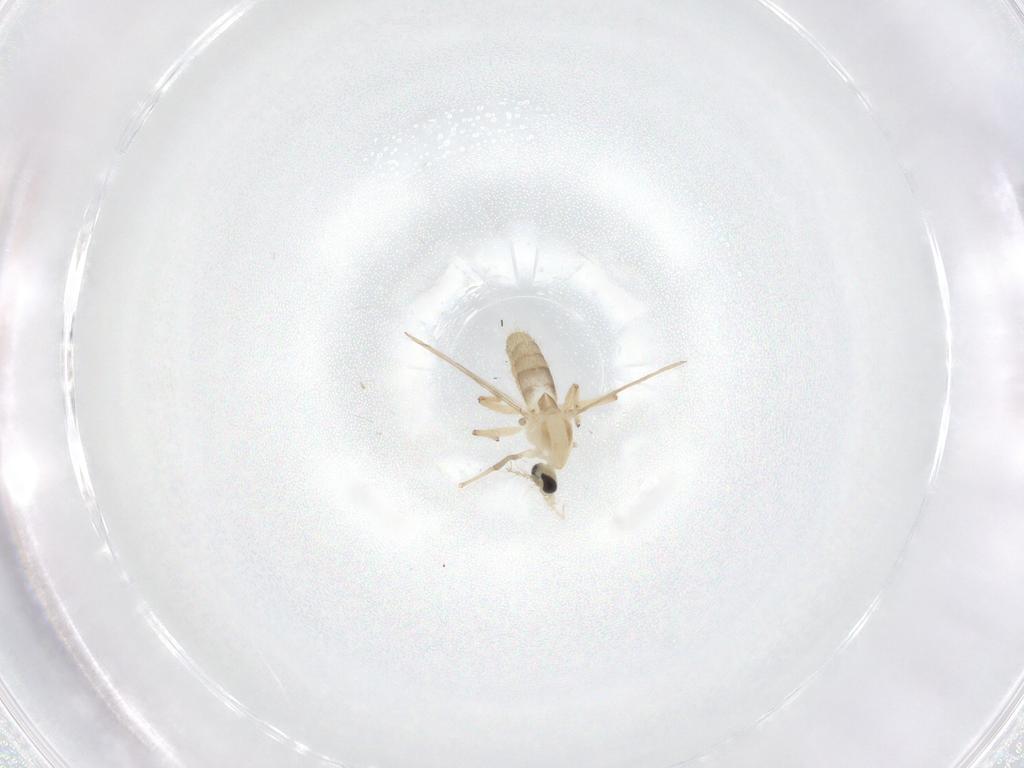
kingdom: Animalia
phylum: Arthropoda
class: Insecta
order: Diptera
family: Chironomidae
